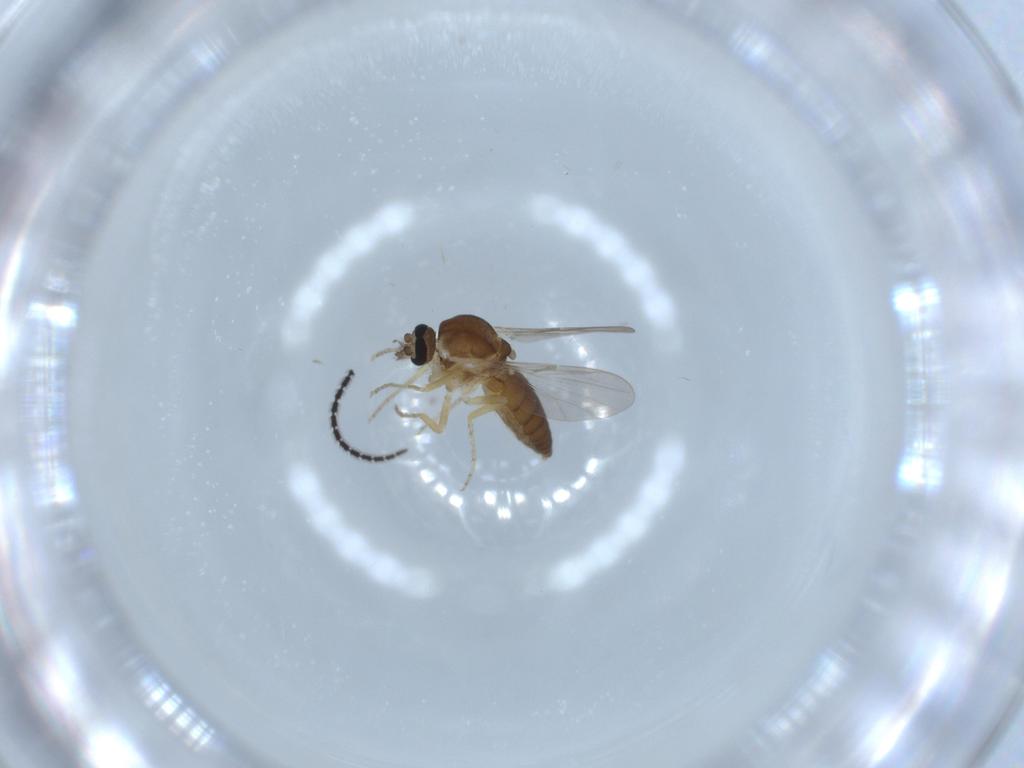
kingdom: Animalia
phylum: Arthropoda
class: Insecta
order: Diptera
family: Ceratopogonidae
